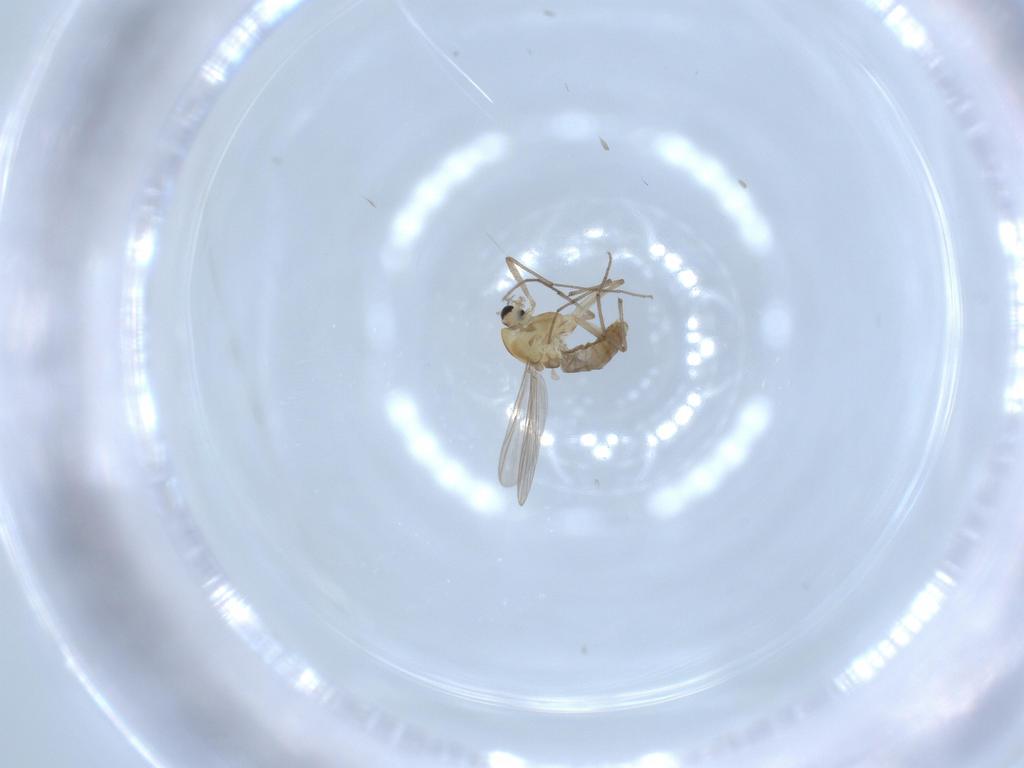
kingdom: Animalia
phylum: Arthropoda
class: Insecta
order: Diptera
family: Chironomidae
